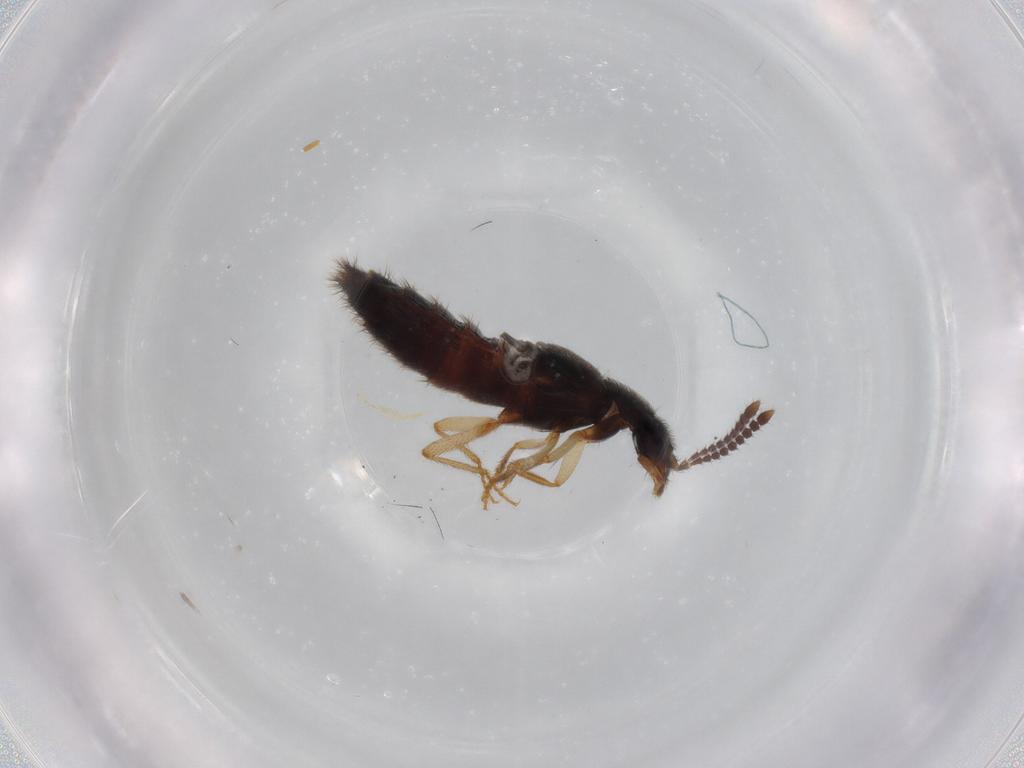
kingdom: Animalia
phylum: Arthropoda
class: Insecta
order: Coleoptera
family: Staphylinidae
